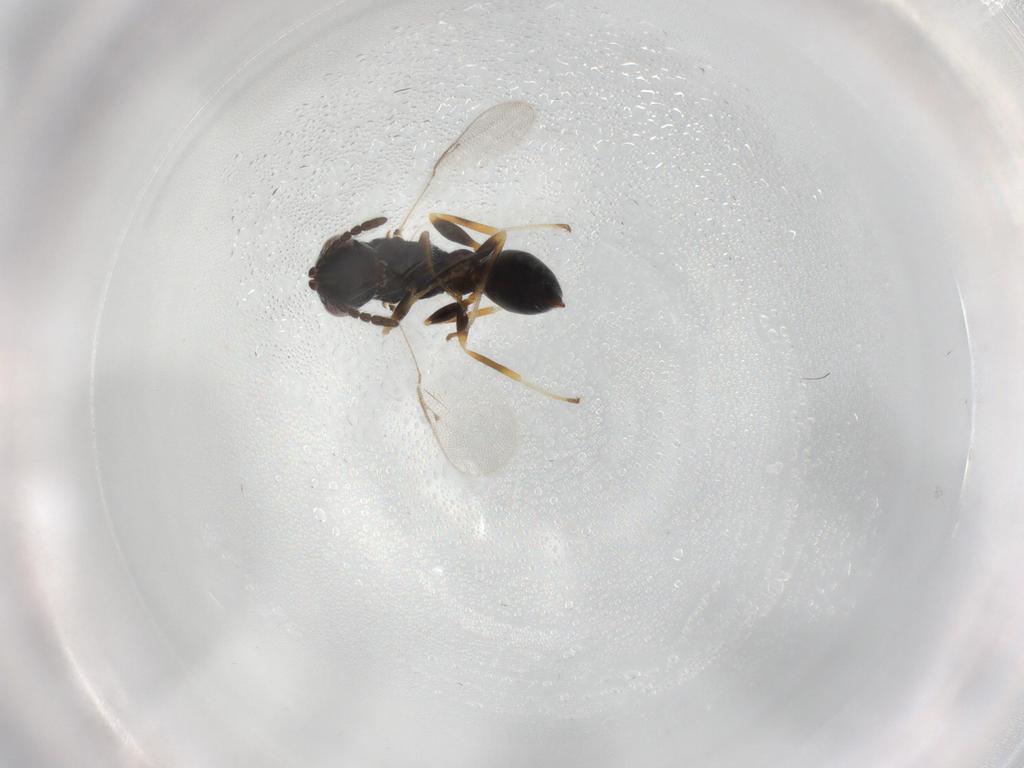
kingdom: Animalia
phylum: Arthropoda
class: Insecta
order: Hymenoptera
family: Eurytomidae
